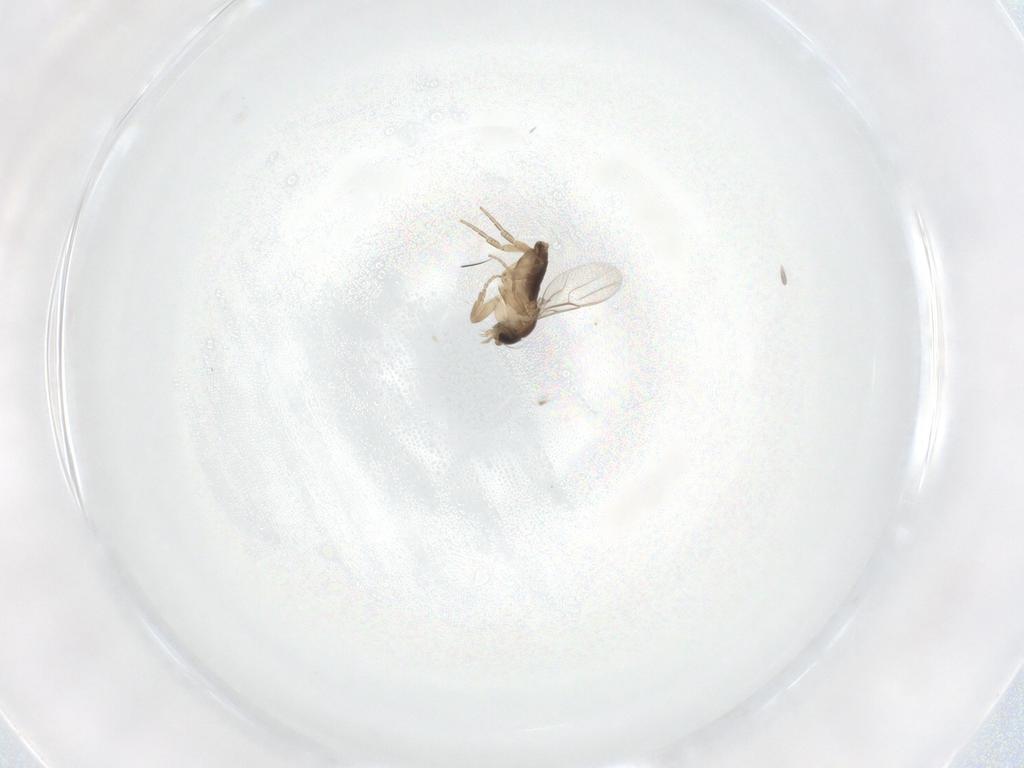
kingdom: Animalia
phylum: Arthropoda
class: Insecta
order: Diptera
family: Phoridae
